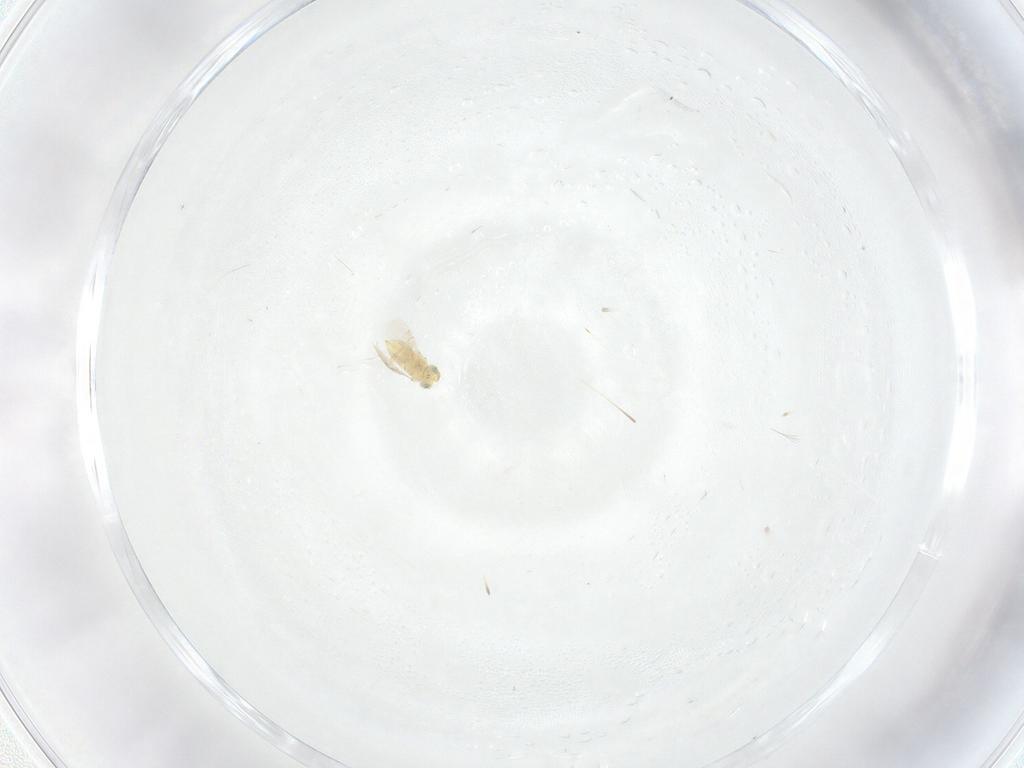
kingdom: Animalia
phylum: Arthropoda
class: Insecta
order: Hymenoptera
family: Aphelinidae
